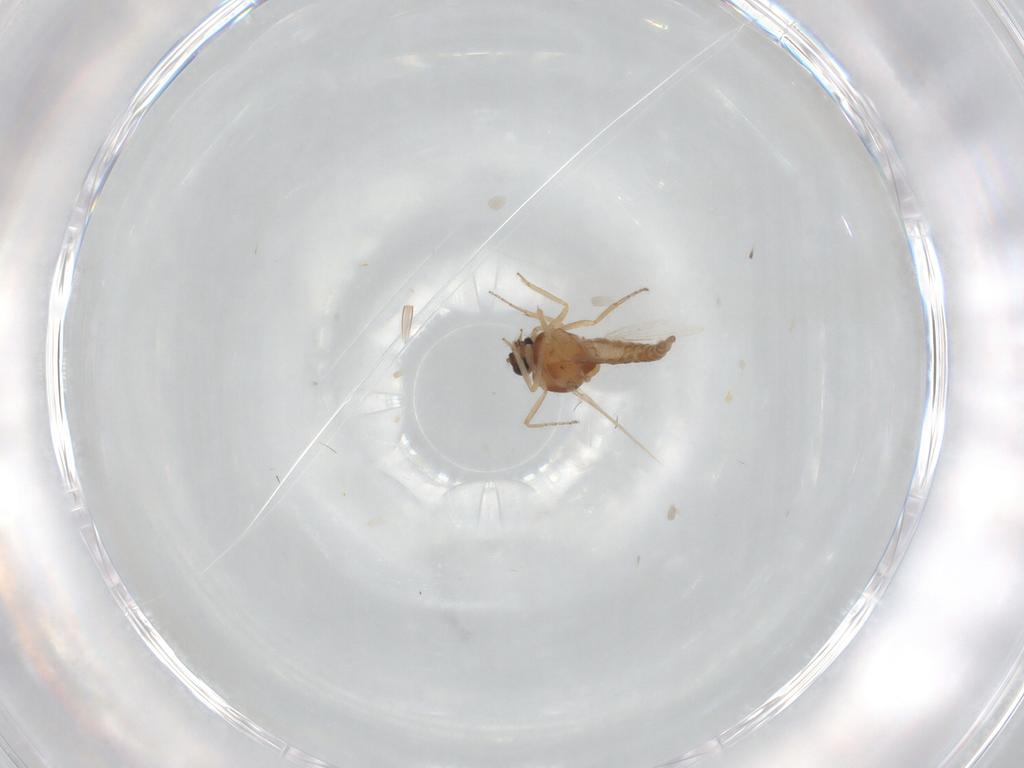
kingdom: Animalia
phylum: Arthropoda
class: Insecta
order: Diptera
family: Ceratopogonidae
